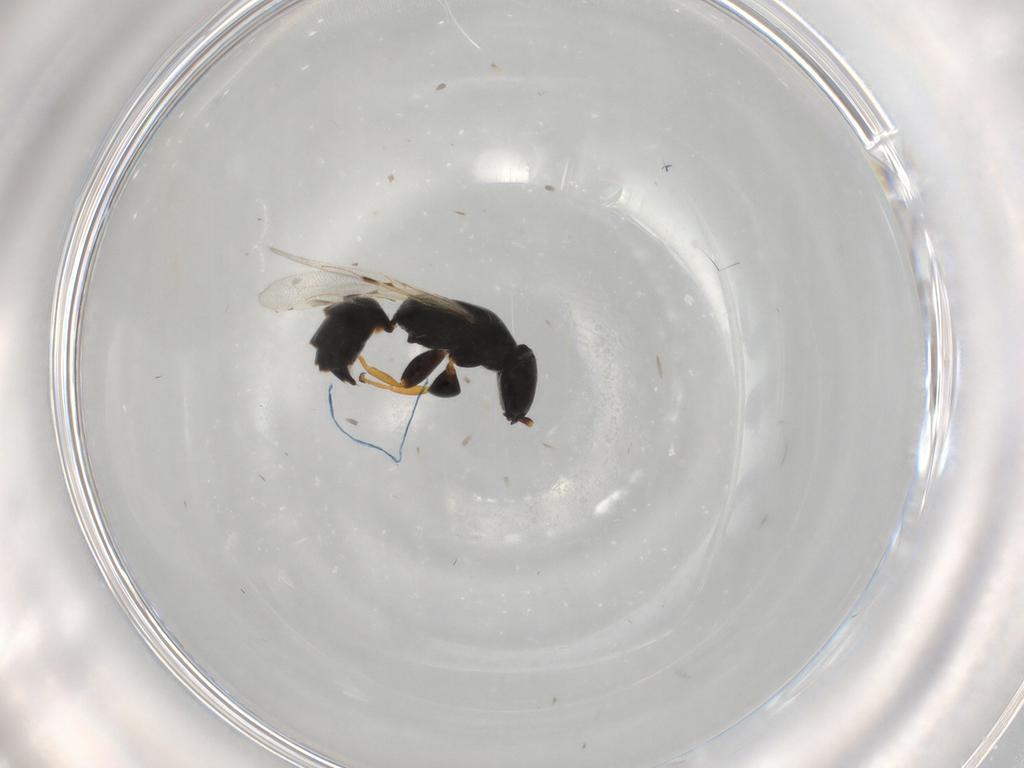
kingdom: Animalia
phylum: Arthropoda
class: Insecta
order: Hymenoptera
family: Bethylidae
